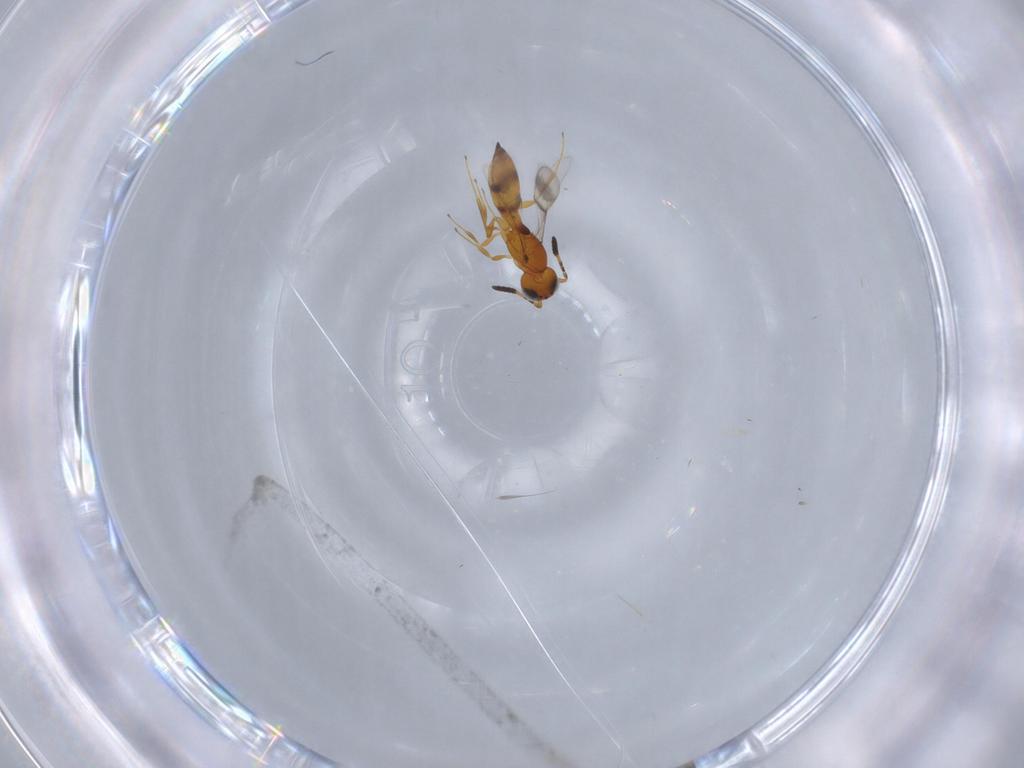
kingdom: Animalia
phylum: Arthropoda
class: Insecta
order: Hymenoptera
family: Scelionidae
